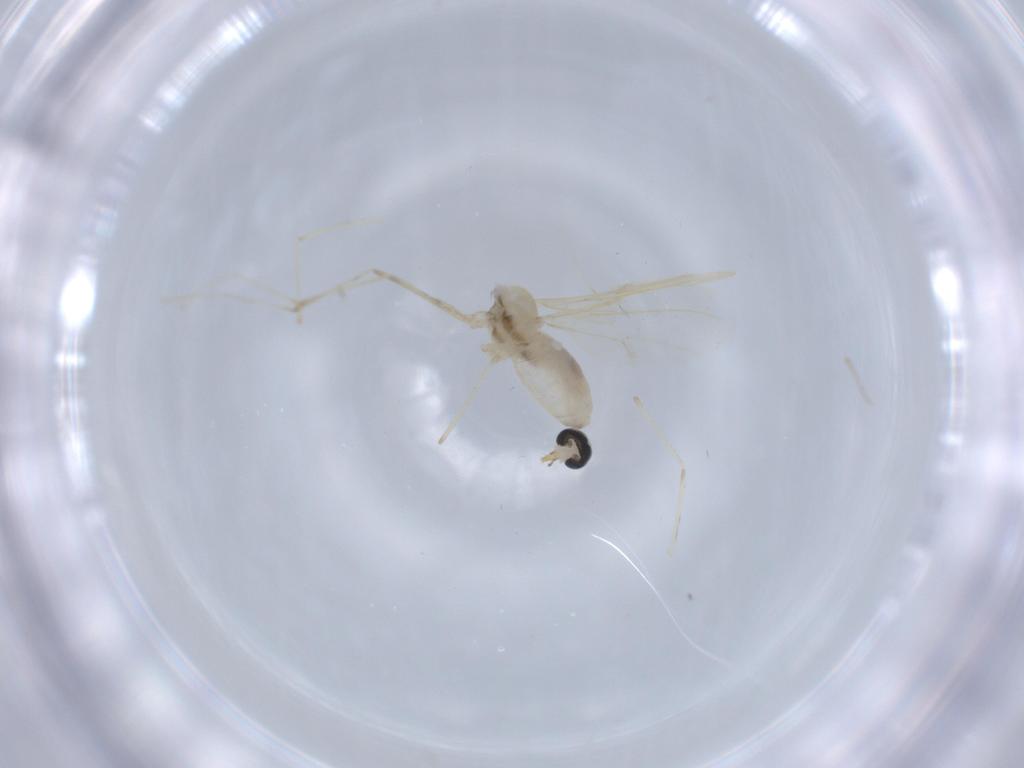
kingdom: Animalia
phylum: Arthropoda
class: Insecta
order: Diptera
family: Cecidomyiidae
